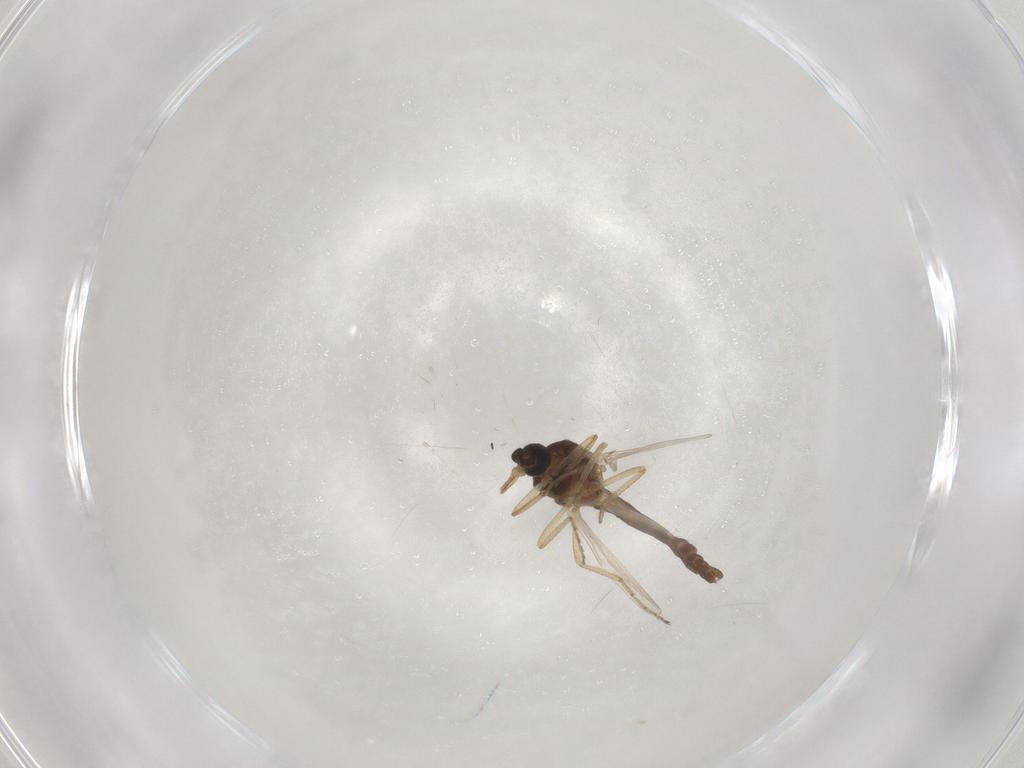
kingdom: Animalia
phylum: Arthropoda
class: Insecta
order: Diptera
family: Ceratopogonidae
